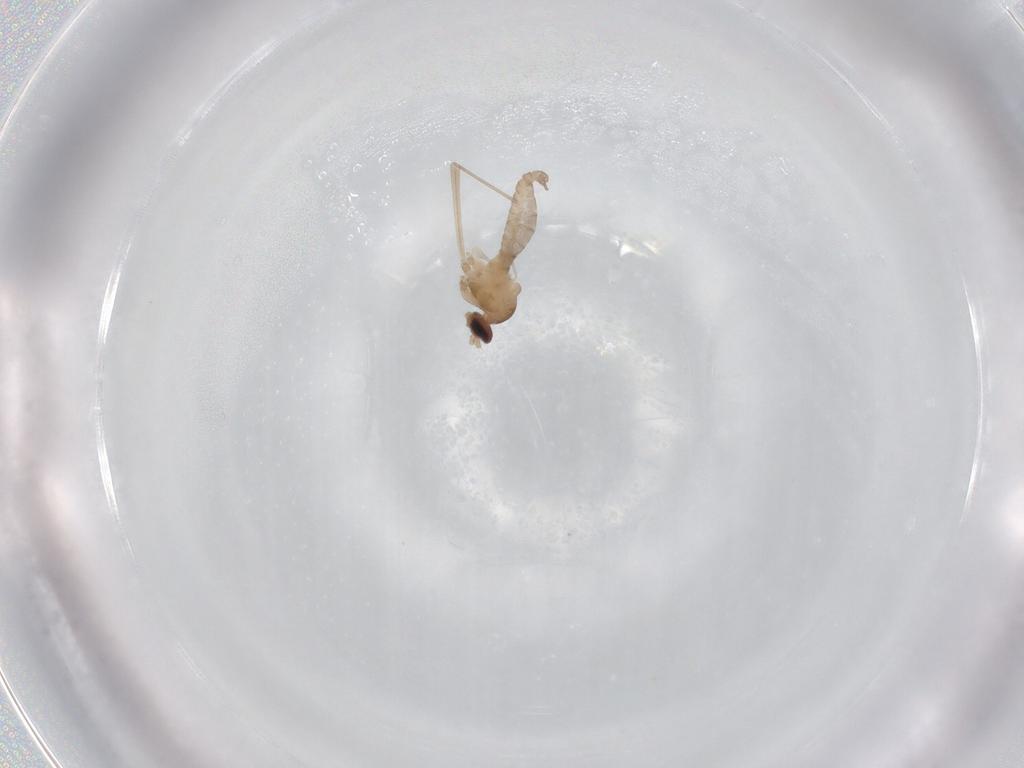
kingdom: Animalia
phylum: Arthropoda
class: Insecta
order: Diptera
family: Cecidomyiidae
